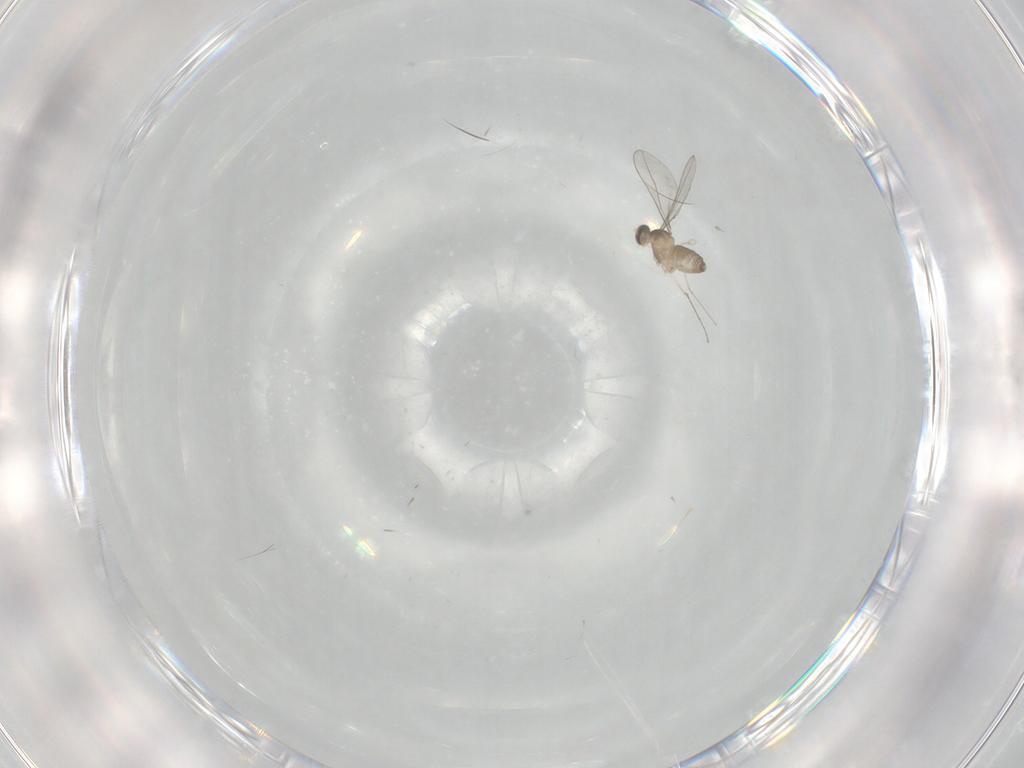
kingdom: Animalia
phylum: Arthropoda
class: Insecta
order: Diptera
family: Cecidomyiidae
